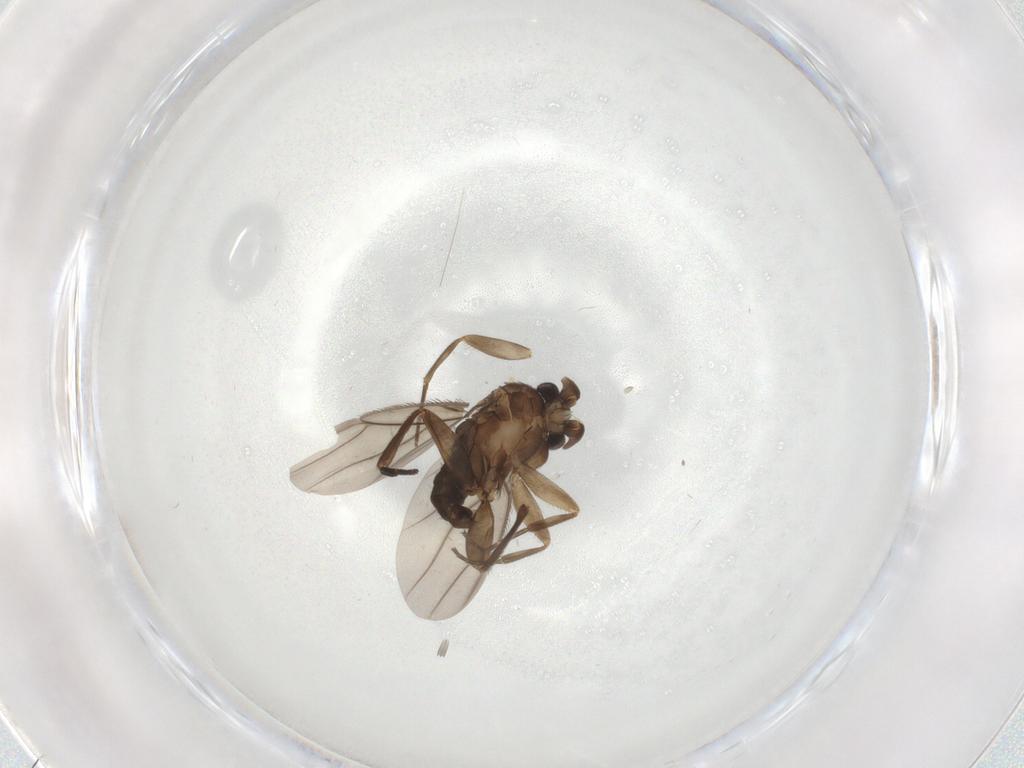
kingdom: Animalia
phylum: Arthropoda
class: Insecta
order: Diptera
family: Phoridae
